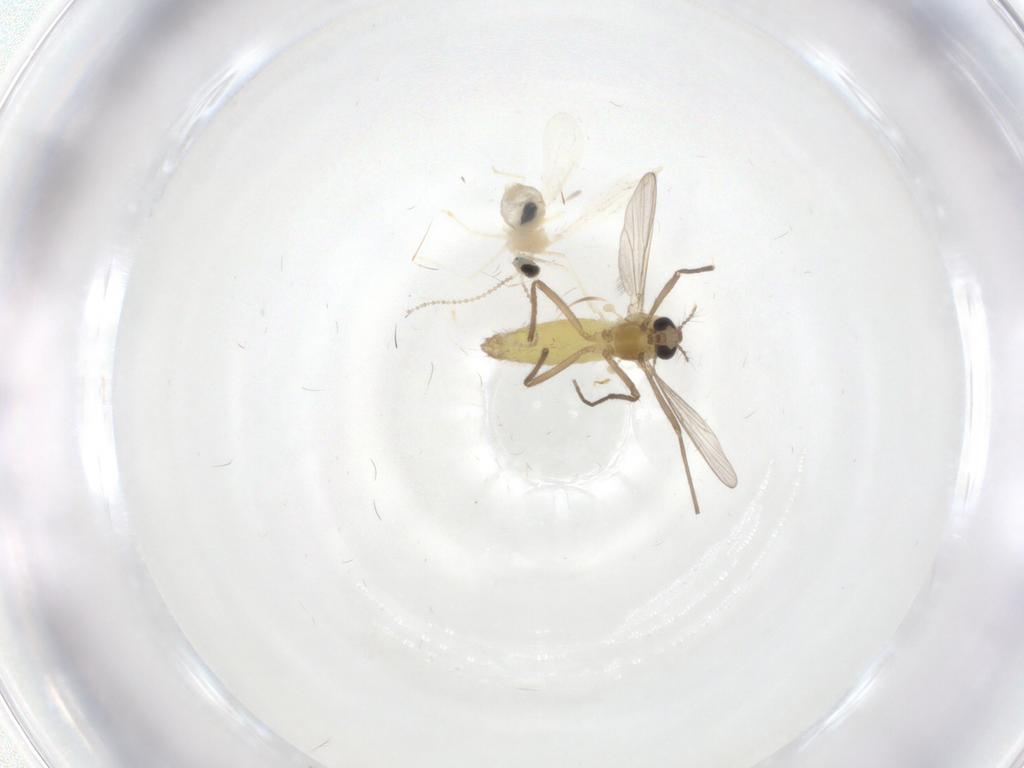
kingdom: Animalia
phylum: Arthropoda
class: Insecta
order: Diptera
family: Chironomidae
